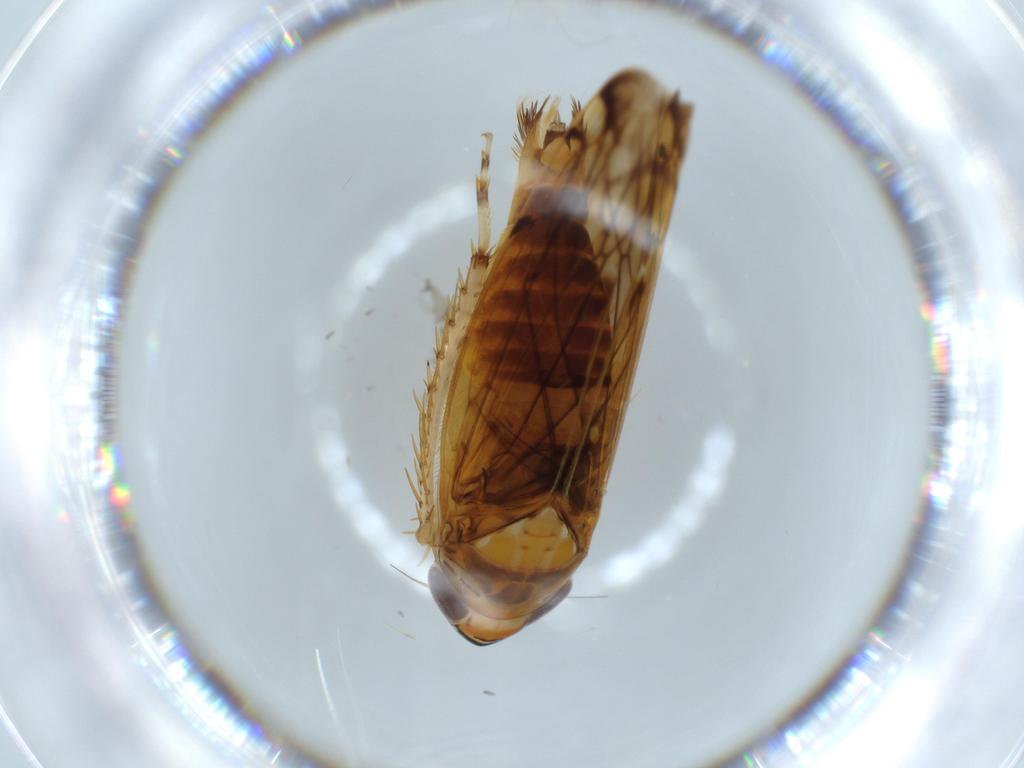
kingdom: Animalia
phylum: Arthropoda
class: Insecta
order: Hemiptera
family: Cicadellidae
